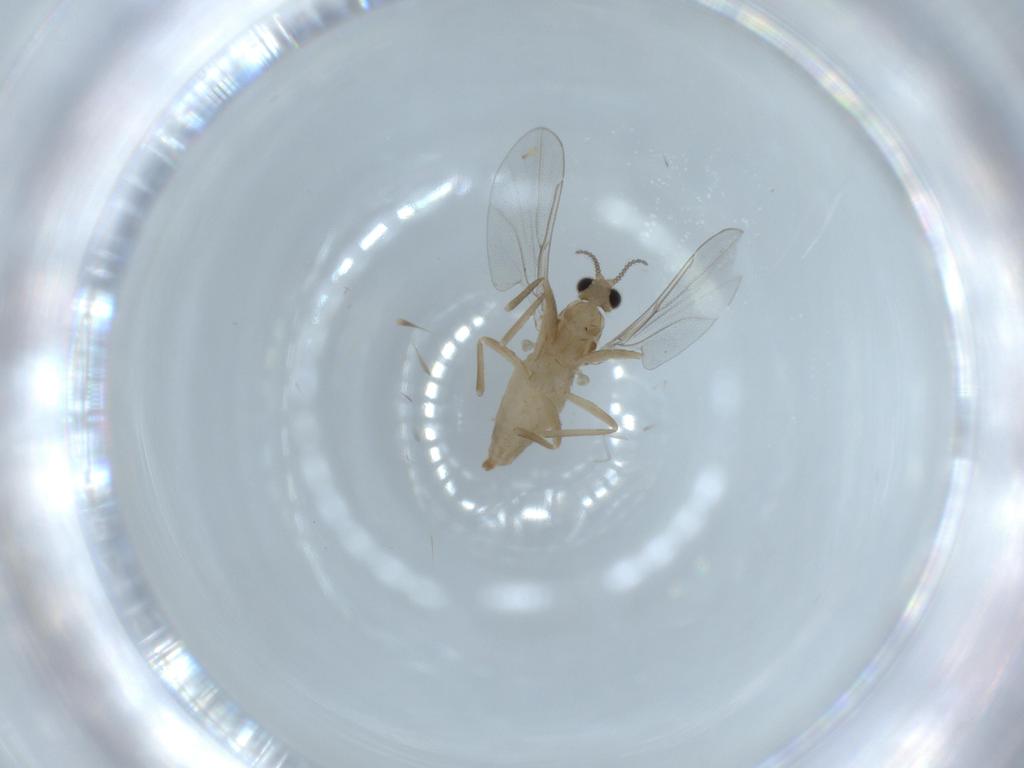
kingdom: Animalia
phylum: Arthropoda
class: Insecta
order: Diptera
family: Cecidomyiidae
